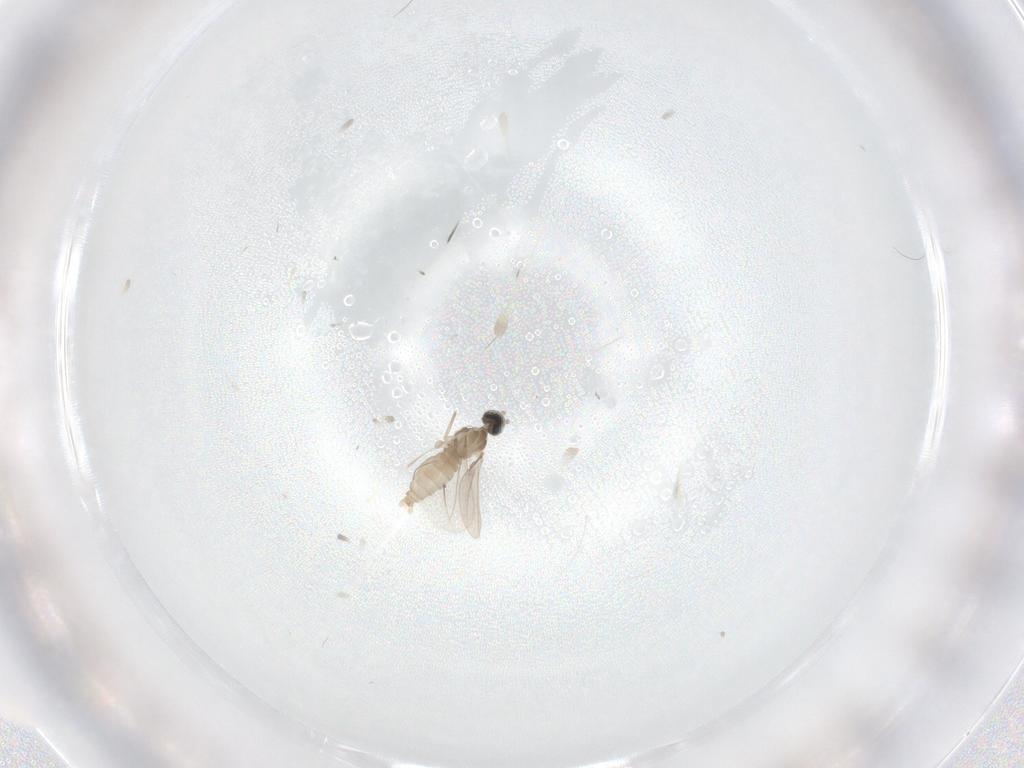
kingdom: Animalia
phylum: Arthropoda
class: Insecta
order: Diptera
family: Cecidomyiidae
